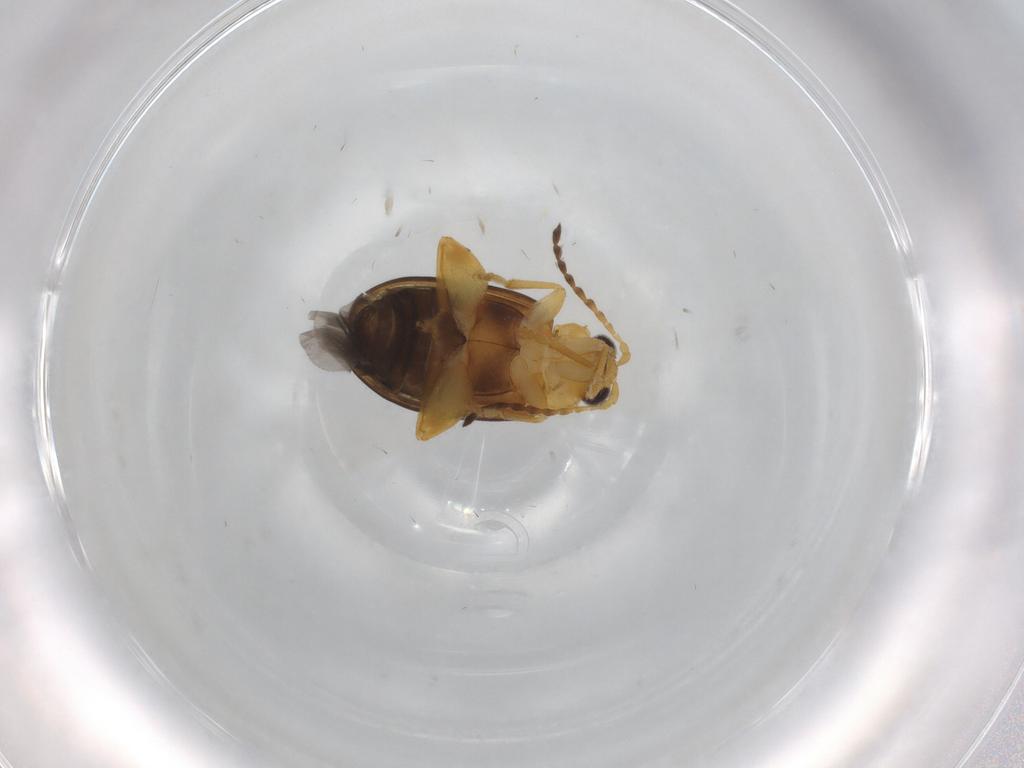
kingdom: Animalia
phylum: Arthropoda
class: Insecta
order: Coleoptera
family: Chrysomelidae
